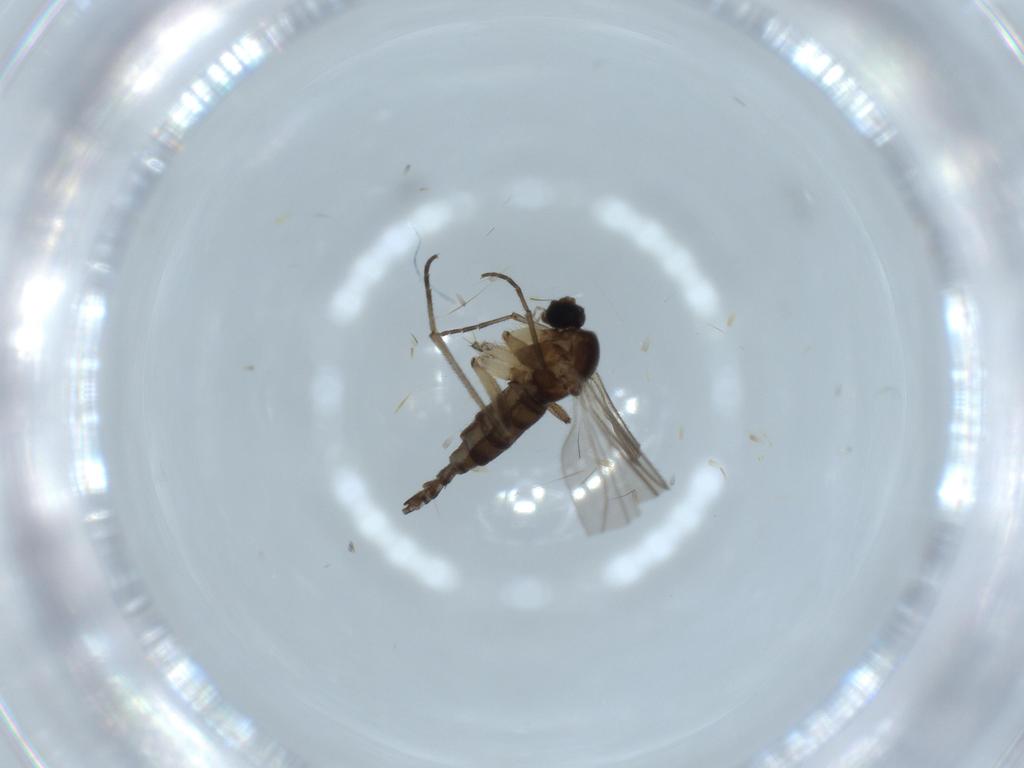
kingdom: Animalia
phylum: Arthropoda
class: Insecta
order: Diptera
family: Sciaridae
